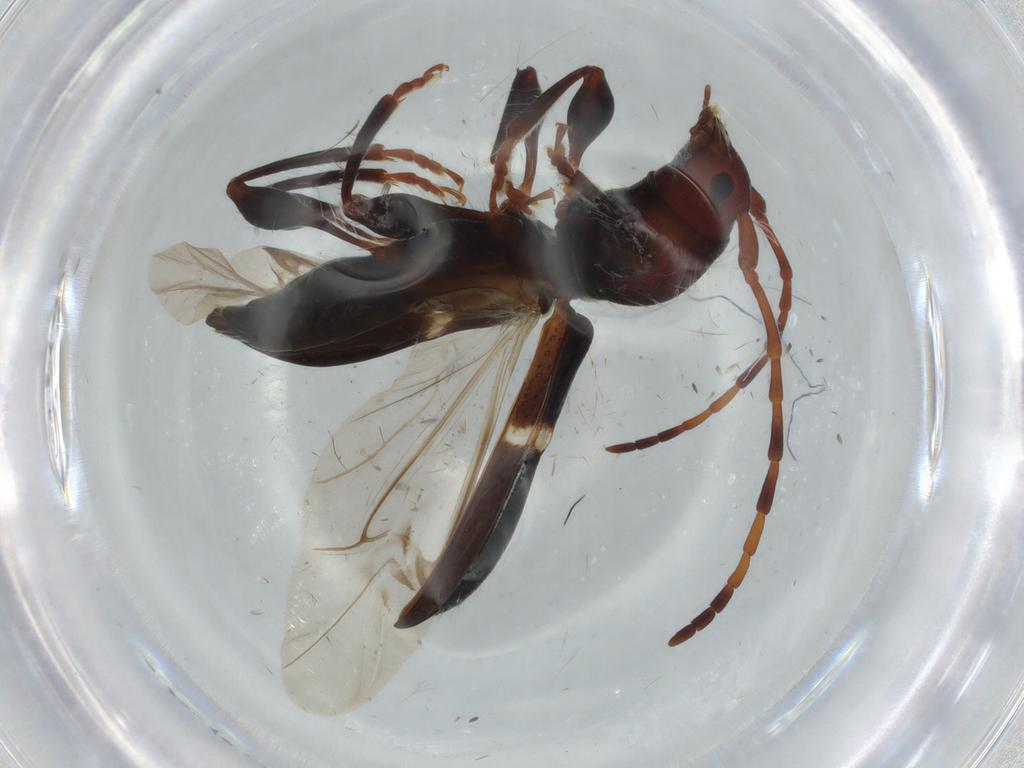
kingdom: Animalia
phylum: Arthropoda
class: Insecta
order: Coleoptera
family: Cerambycidae
